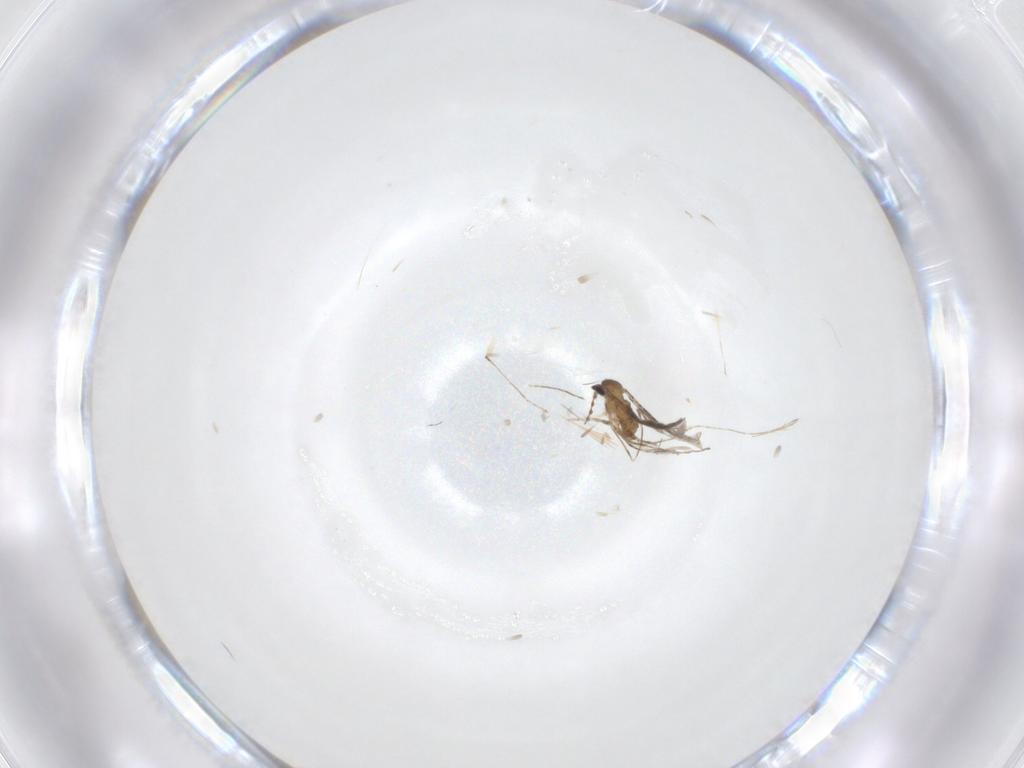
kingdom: Animalia
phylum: Arthropoda
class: Insecta
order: Diptera
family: Cecidomyiidae
